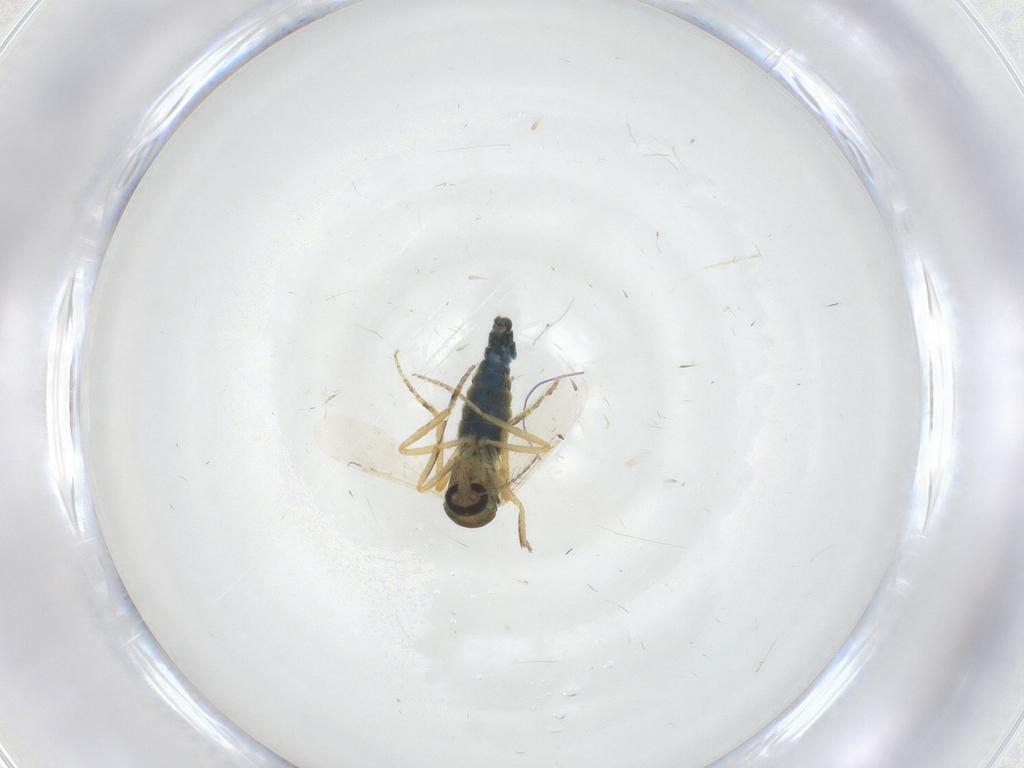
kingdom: Animalia
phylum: Arthropoda
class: Insecta
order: Diptera
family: Ceratopogonidae
